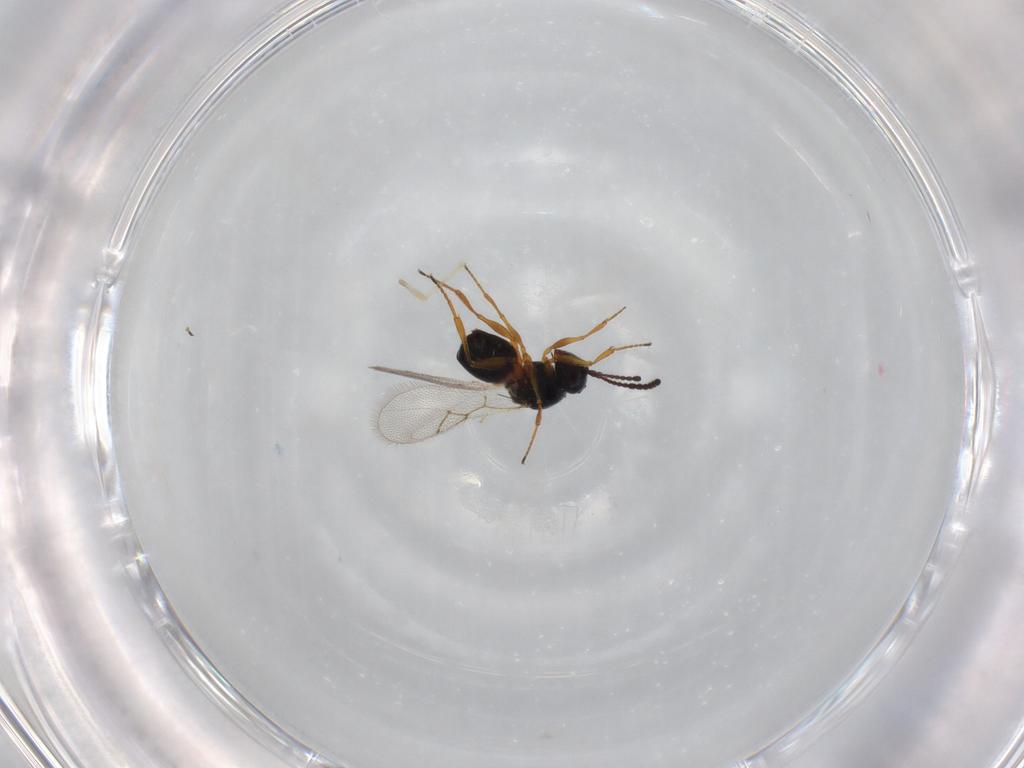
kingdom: Animalia
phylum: Arthropoda
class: Insecta
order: Hymenoptera
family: Figitidae
